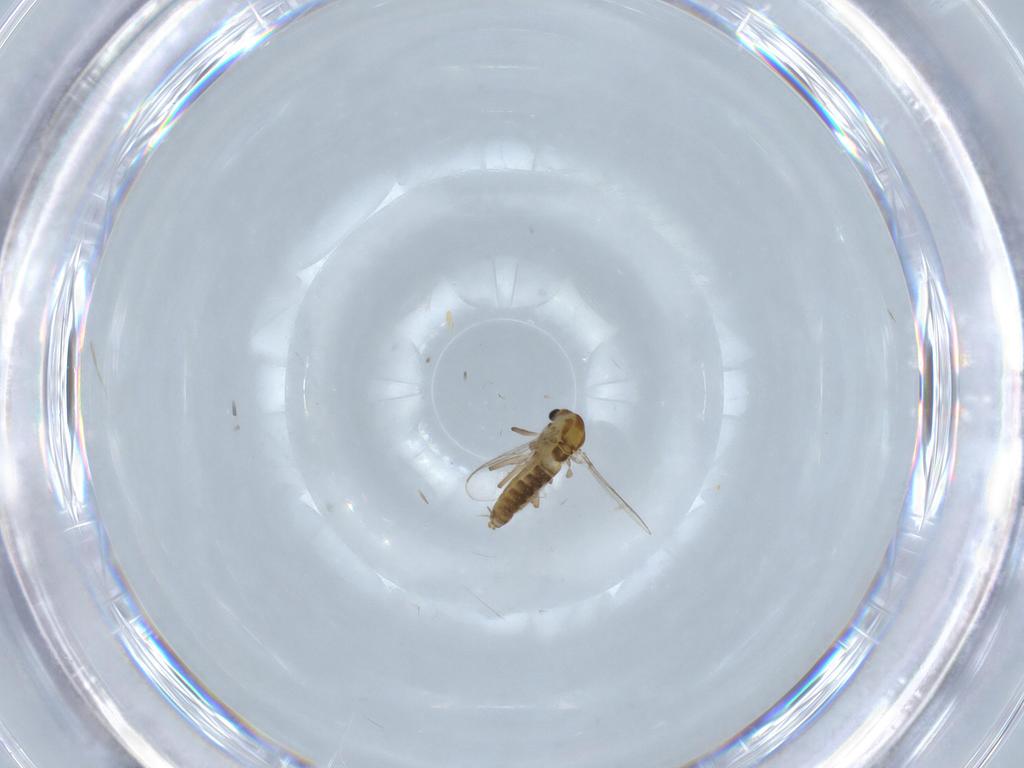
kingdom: Animalia
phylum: Arthropoda
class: Insecta
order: Diptera
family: Chironomidae
